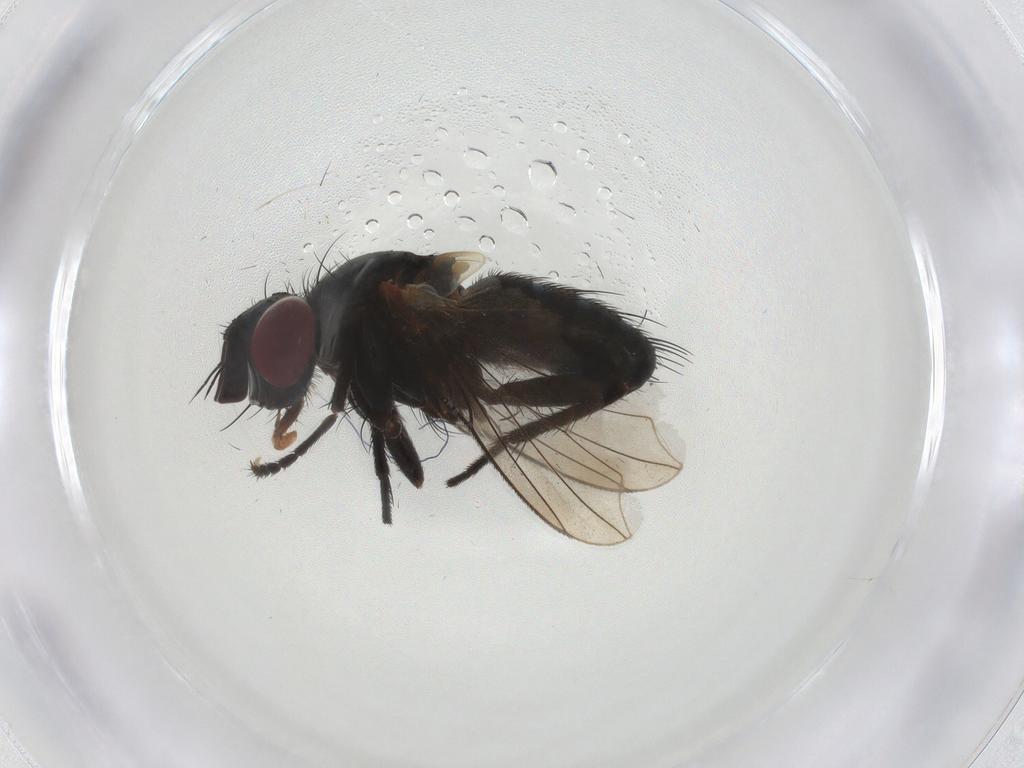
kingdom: Animalia
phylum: Arthropoda
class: Insecta
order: Diptera
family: Tachinidae
